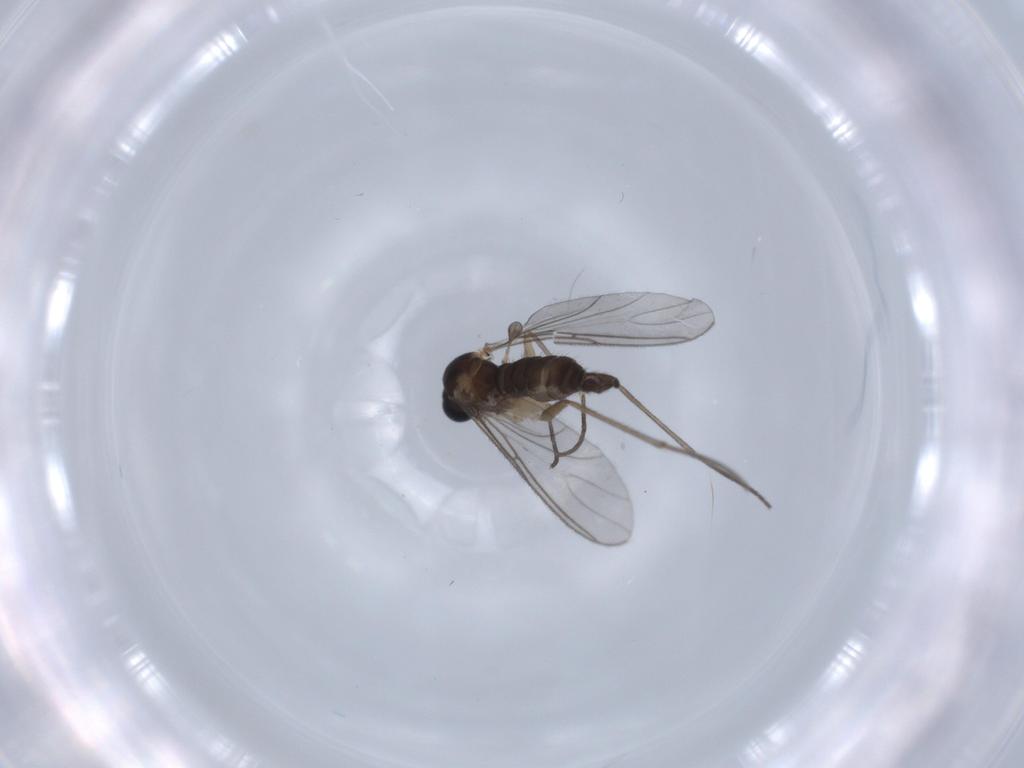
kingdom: Animalia
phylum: Arthropoda
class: Insecta
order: Diptera
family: Sciaridae
